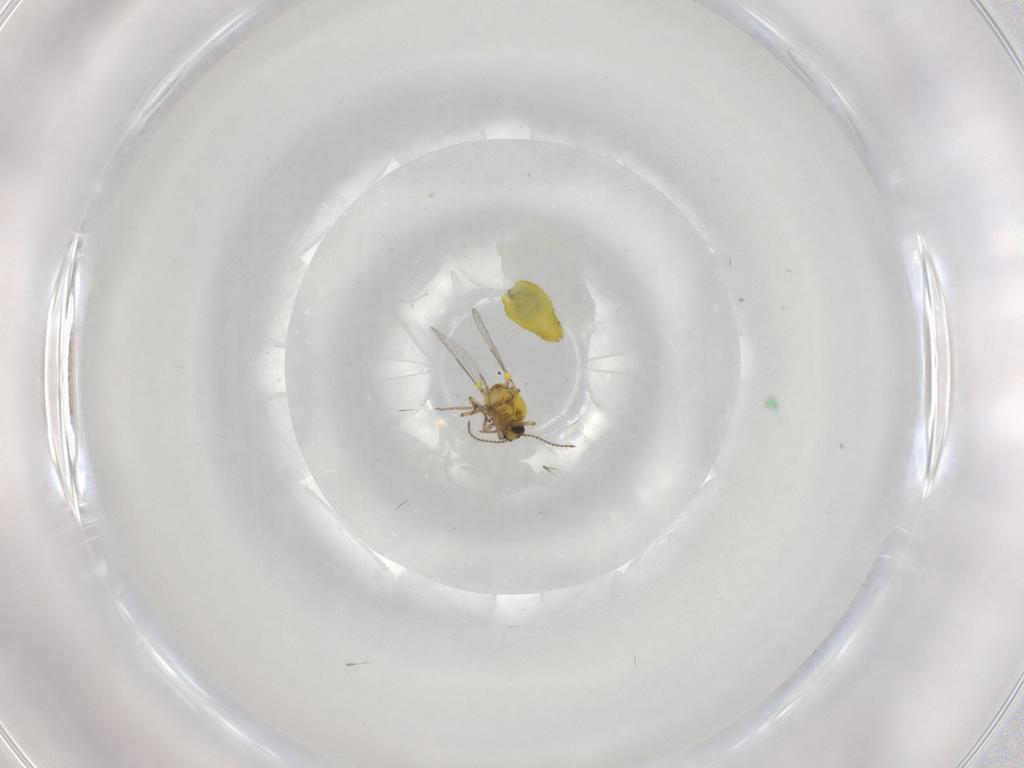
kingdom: Animalia
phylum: Arthropoda
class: Insecta
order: Diptera
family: Ceratopogonidae
